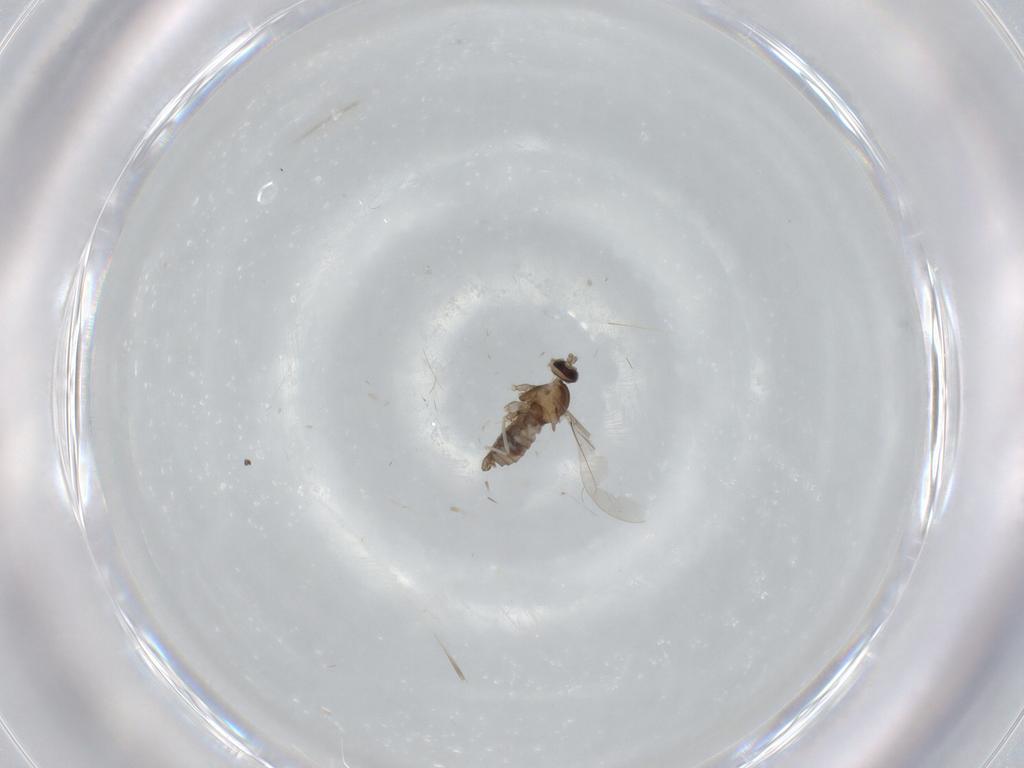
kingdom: Animalia
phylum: Arthropoda
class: Insecta
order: Diptera
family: Cecidomyiidae
